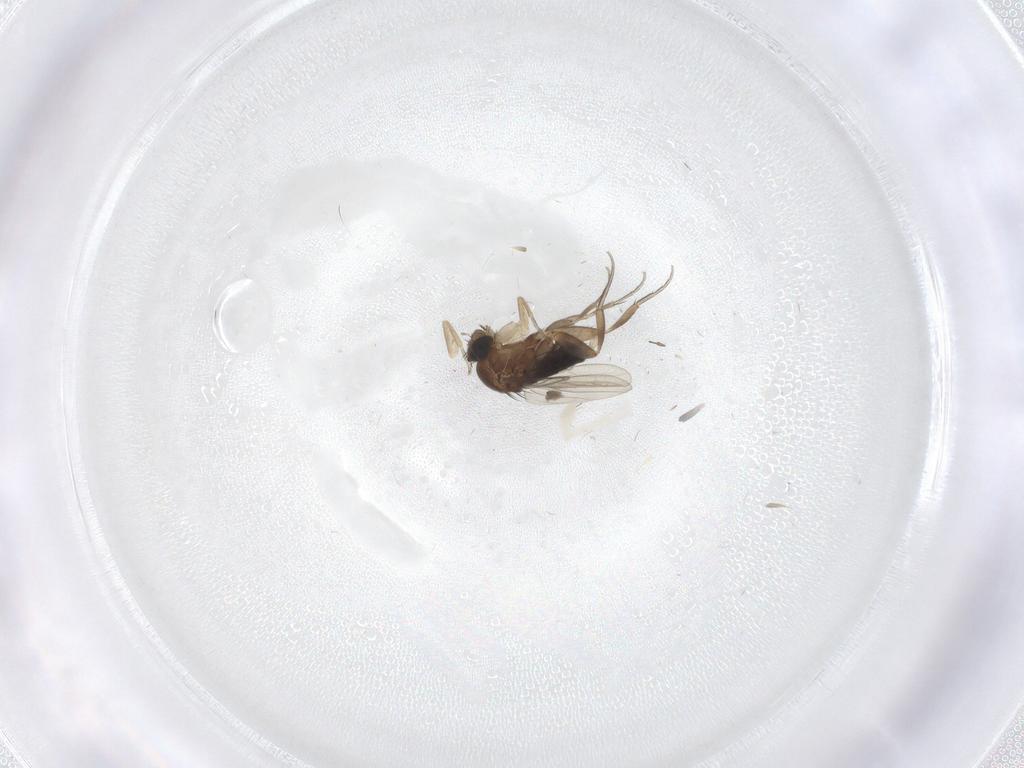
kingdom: Animalia
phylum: Arthropoda
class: Insecta
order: Diptera
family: Phoridae
